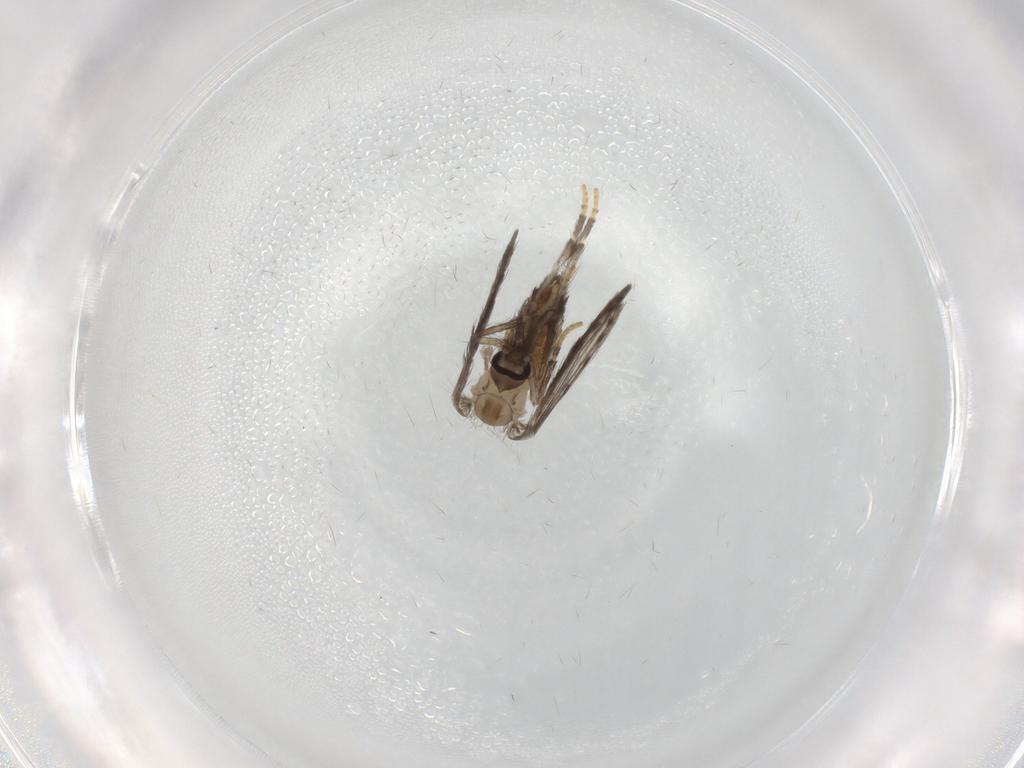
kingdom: Animalia
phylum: Arthropoda
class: Insecta
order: Diptera
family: Psychodidae
